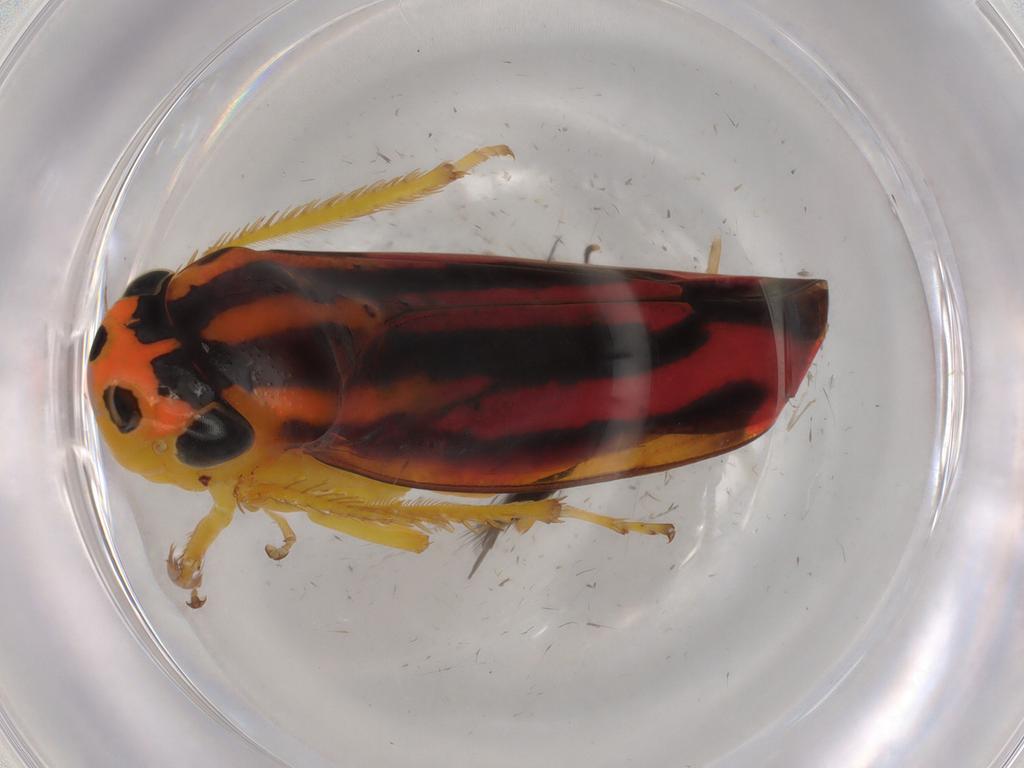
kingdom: Animalia
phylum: Arthropoda
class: Insecta
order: Hemiptera
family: Cicadellidae
